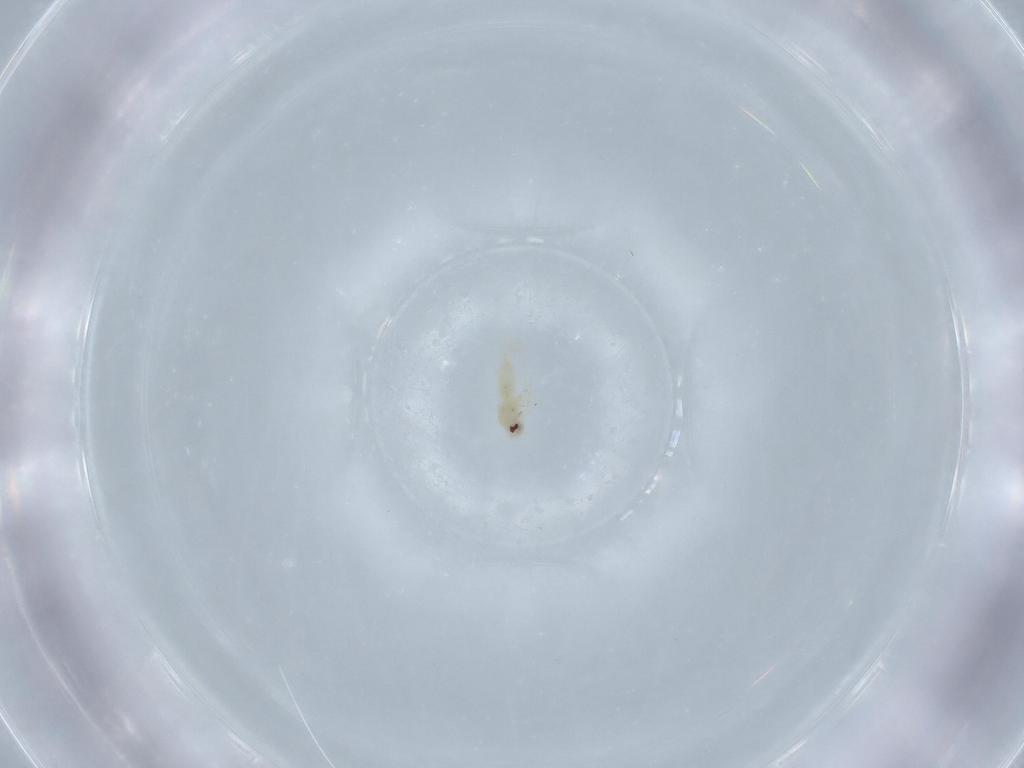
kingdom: Animalia
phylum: Arthropoda
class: Insecta
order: Hemiptera
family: Aleyrodidae
